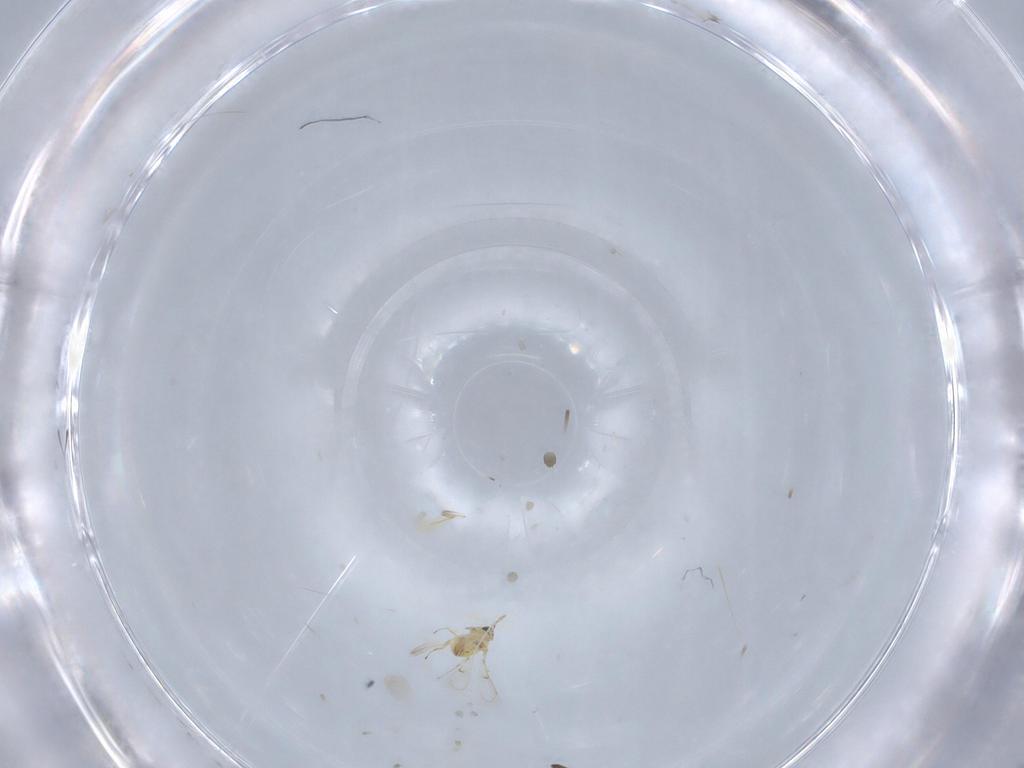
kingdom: Animalia
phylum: Arthropoda
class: Insecta
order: Hymenoptera
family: Trichogrammatidae
